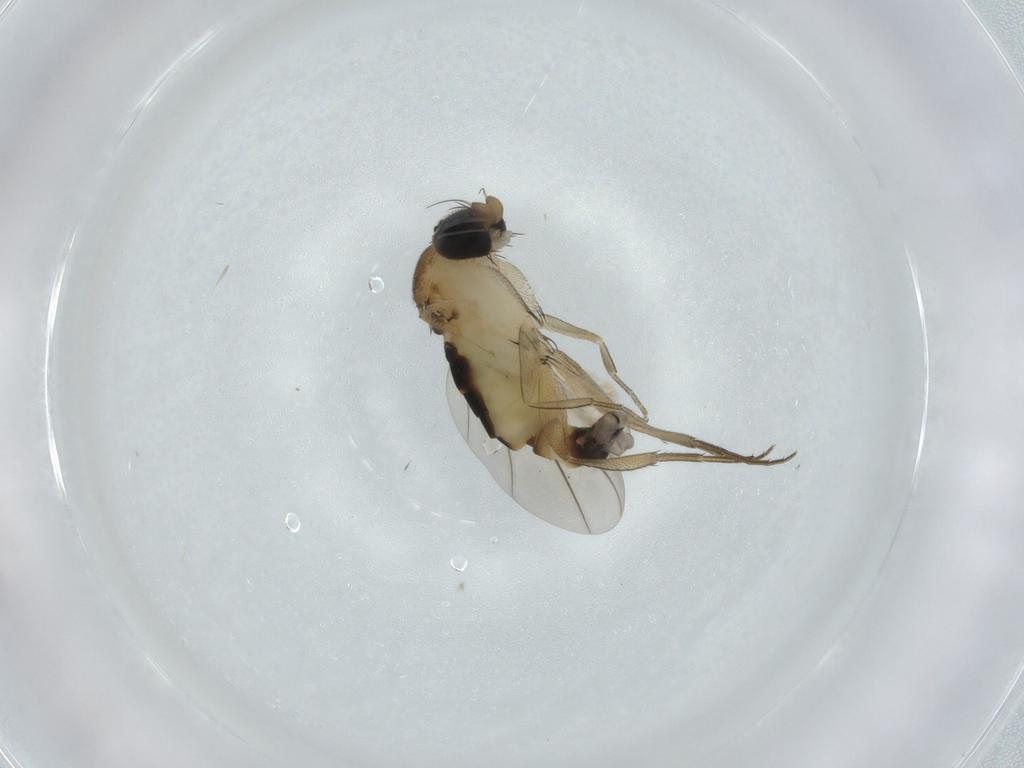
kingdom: Animalia
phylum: Arthropoda
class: Insecta
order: Diptera
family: Phoridae
